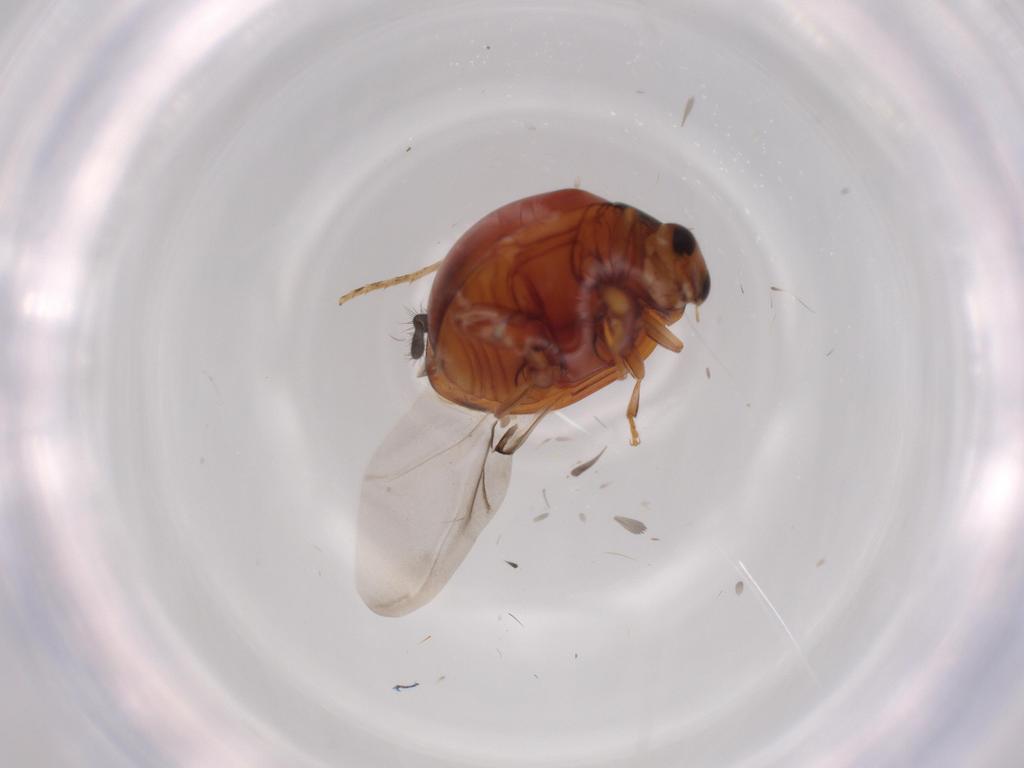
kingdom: Animalia
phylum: Arthropoda
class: Insecta
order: Coleoptera
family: Coccinellidae
